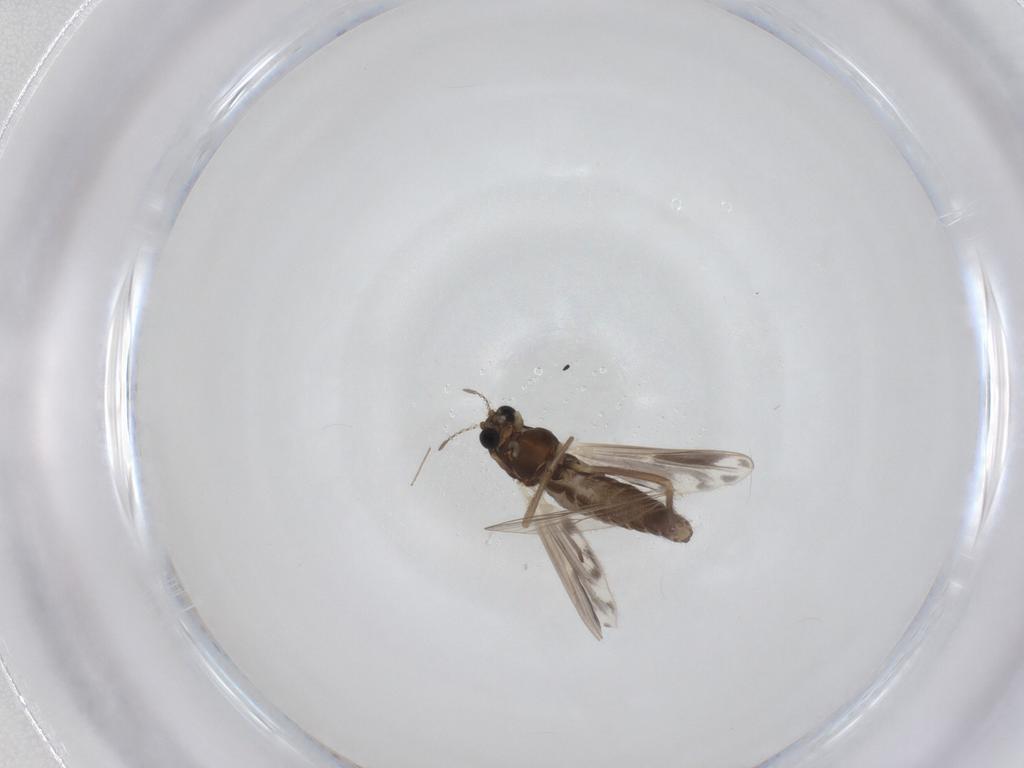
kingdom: Animalia
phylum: Arthropoda
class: Insecta
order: Diptera
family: Chironomidae
